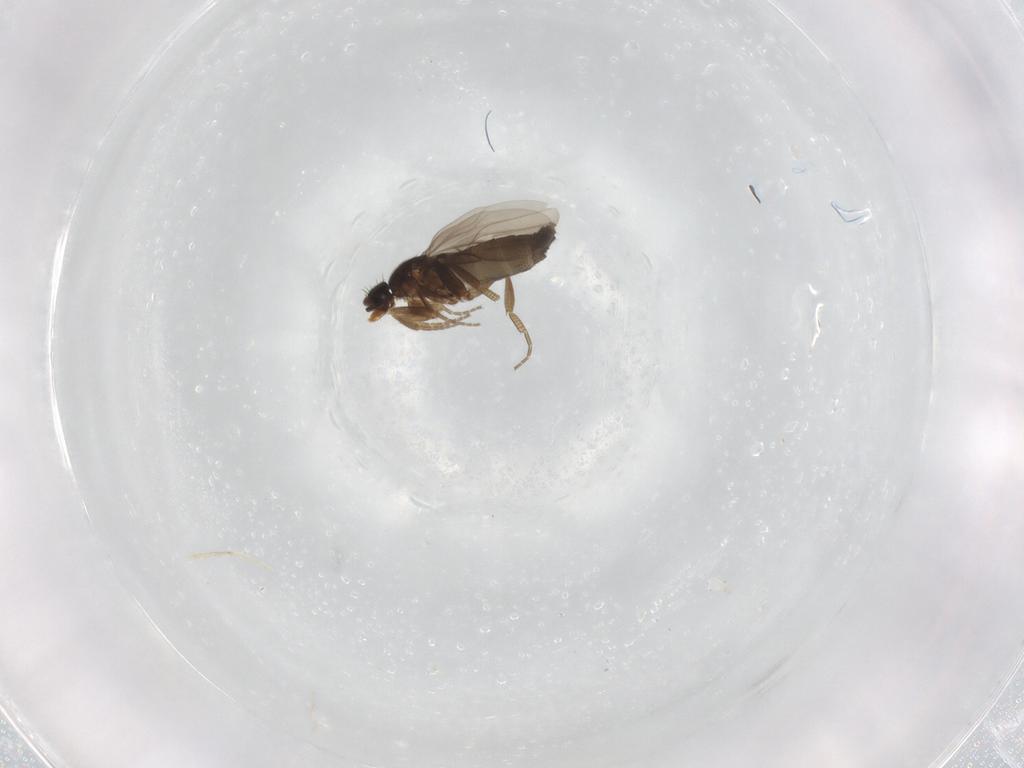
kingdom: Animalia
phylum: Arthropoda
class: Insecta
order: Diptera
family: Phoridae
